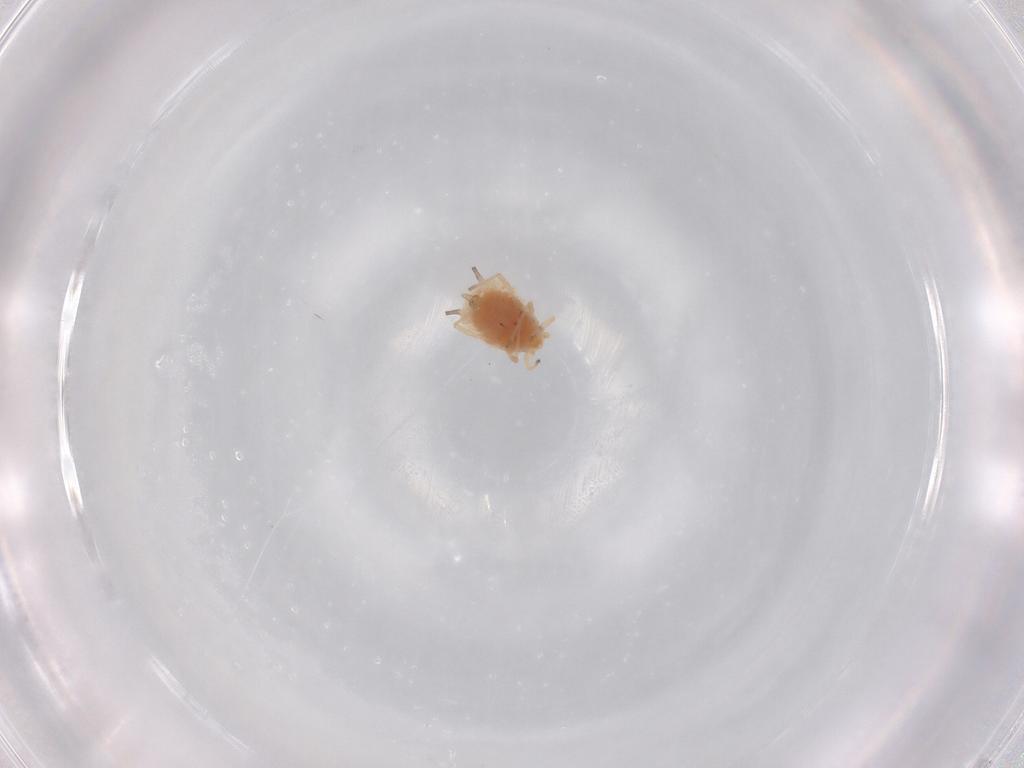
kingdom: Animalia
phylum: Arthropoda
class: Insecta
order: Hemiptera
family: Aphididae
